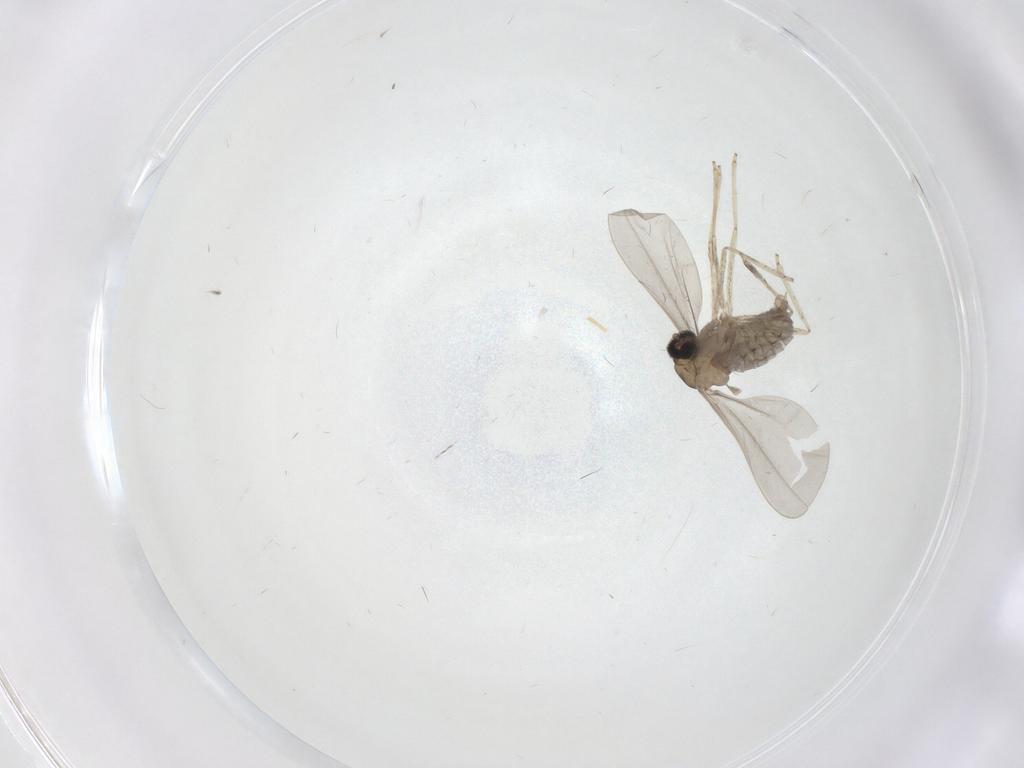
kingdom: Animalia
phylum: Arthropoda
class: Insecta
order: Diptera
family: Cecidomyiidae
